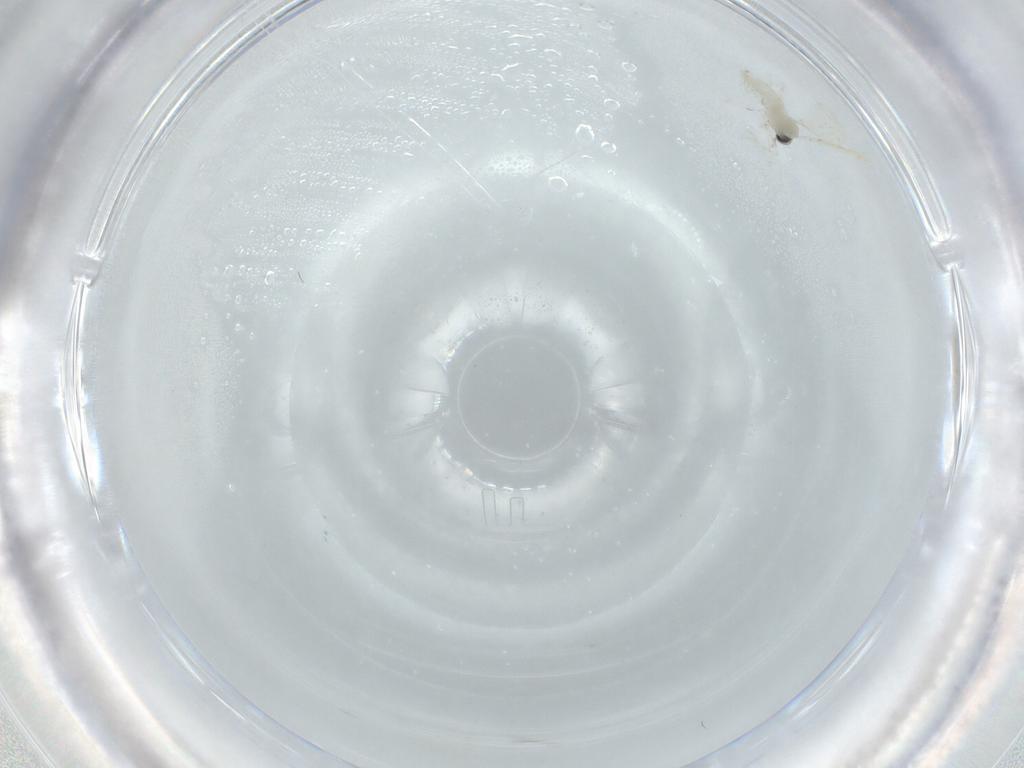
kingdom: Animalia
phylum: Arthropoda
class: Insecta
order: Diptera
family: Cecidomyiidae
